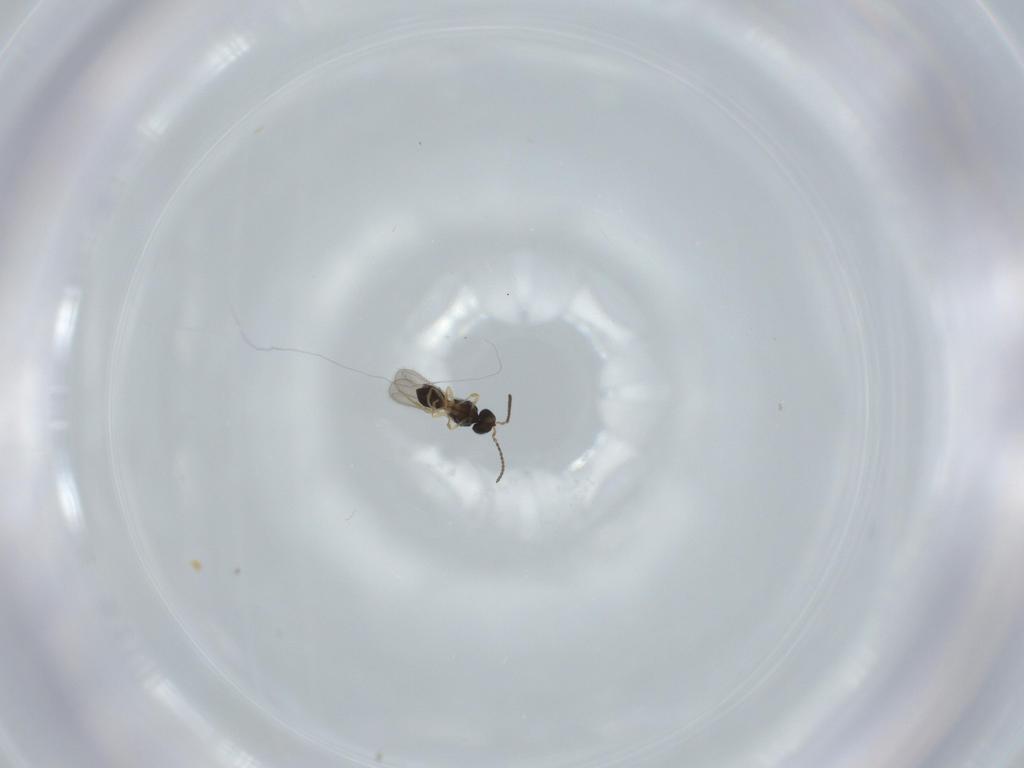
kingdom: Animalia
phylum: Arthropoda
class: Insecta
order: Hymenoptera
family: Scelionidae
